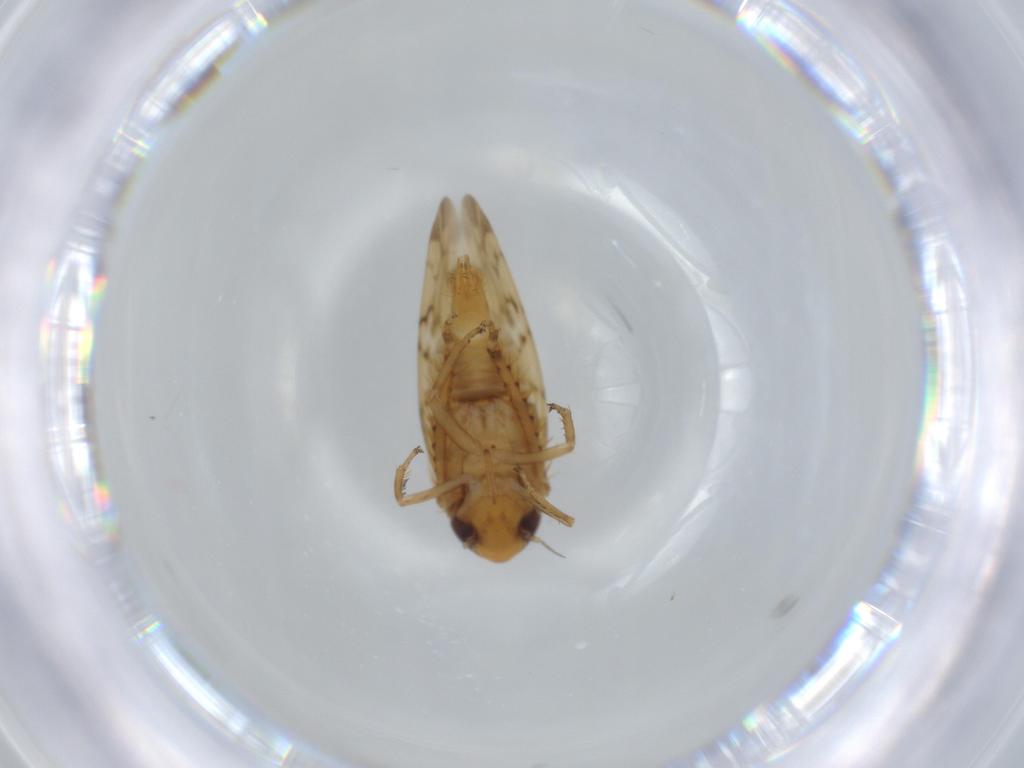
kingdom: Animalia
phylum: Arthropoda
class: Insecta
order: Hemiptera
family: Cicadellidae
